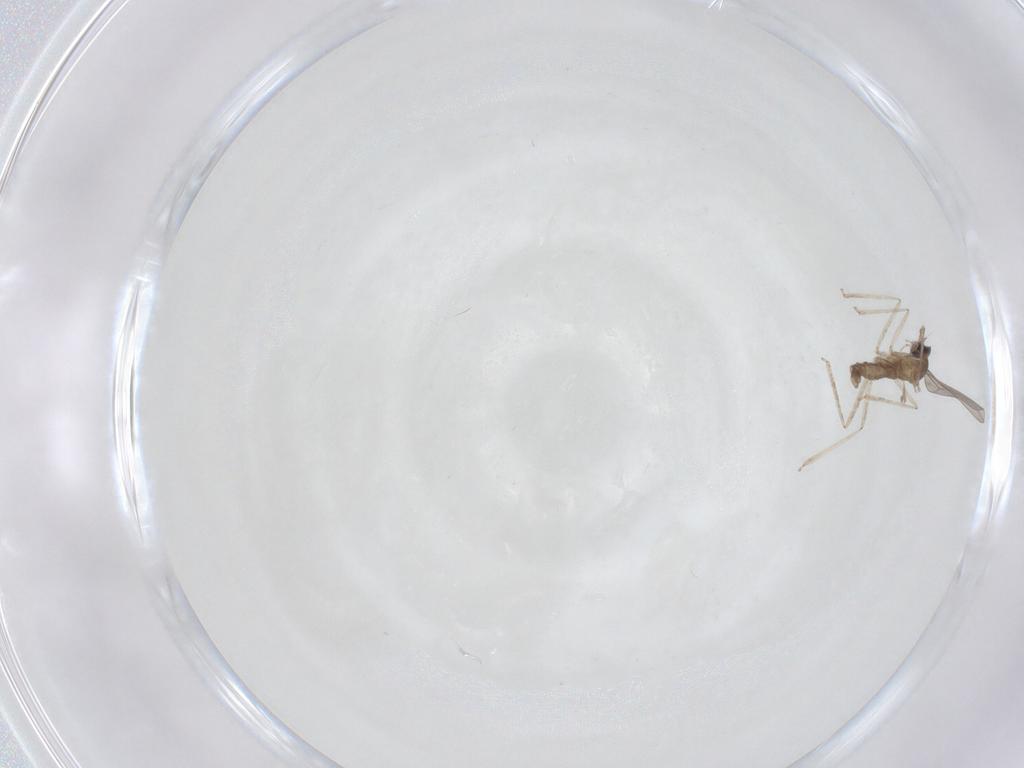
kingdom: Animalia
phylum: Arthropoda
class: Insecta
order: Diptera
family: Cecidomyiidae
